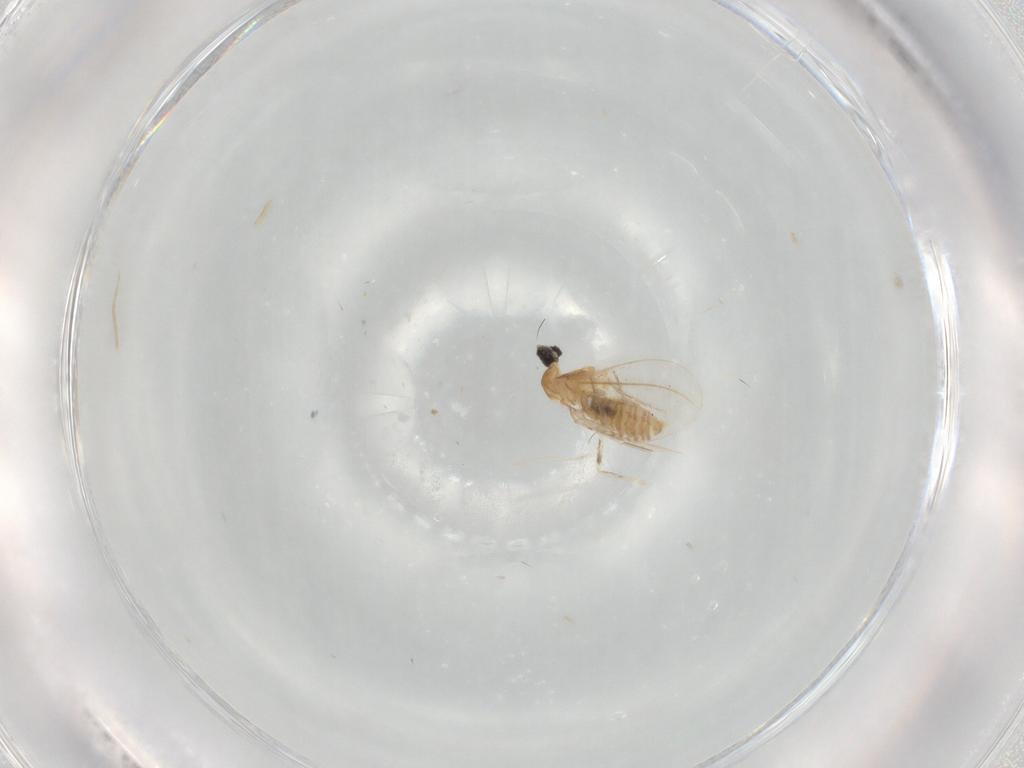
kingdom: Animalia
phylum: Arthropoda
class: Insecta
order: Diptera
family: Cecidomyiidae
